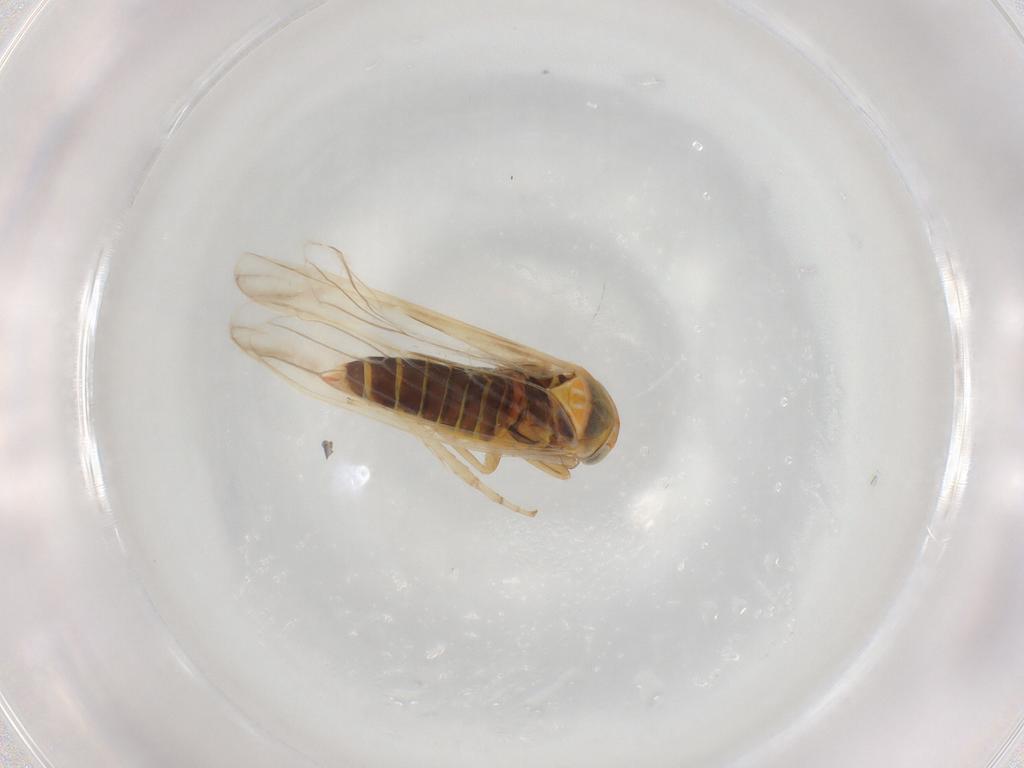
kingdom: Animalia
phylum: Arthropoda
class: Insecta
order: Hemiptera
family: Cicadellidae
